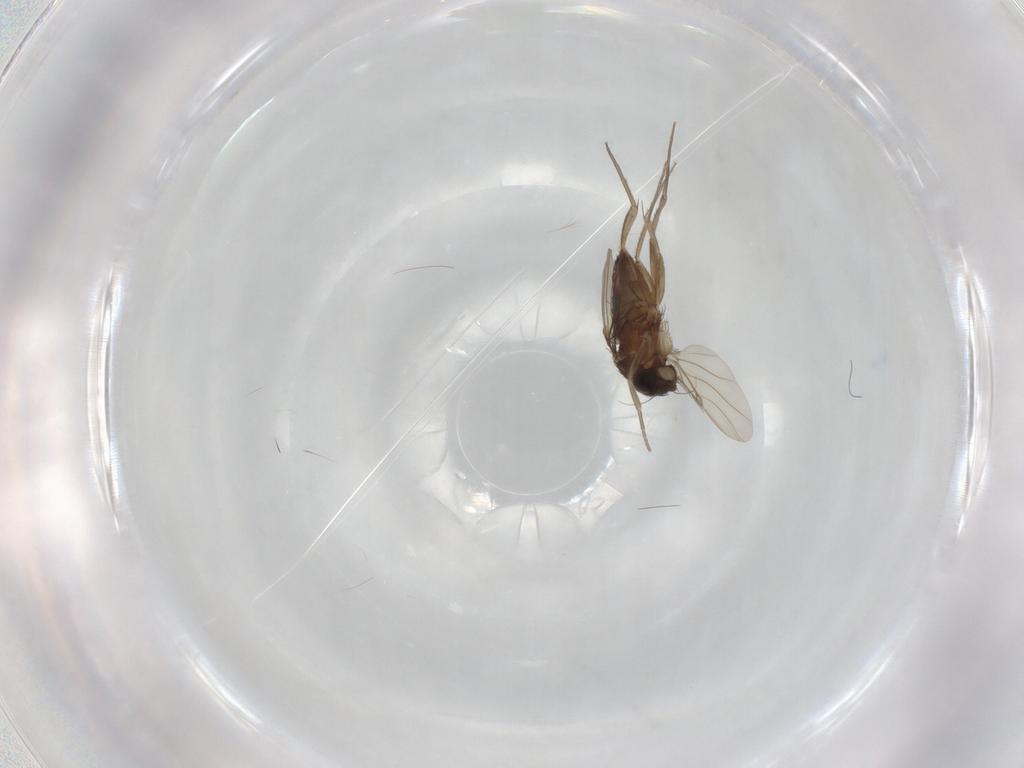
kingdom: Animalia
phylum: Arthropoda
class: Insecta
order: Diptera
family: Phoridae
